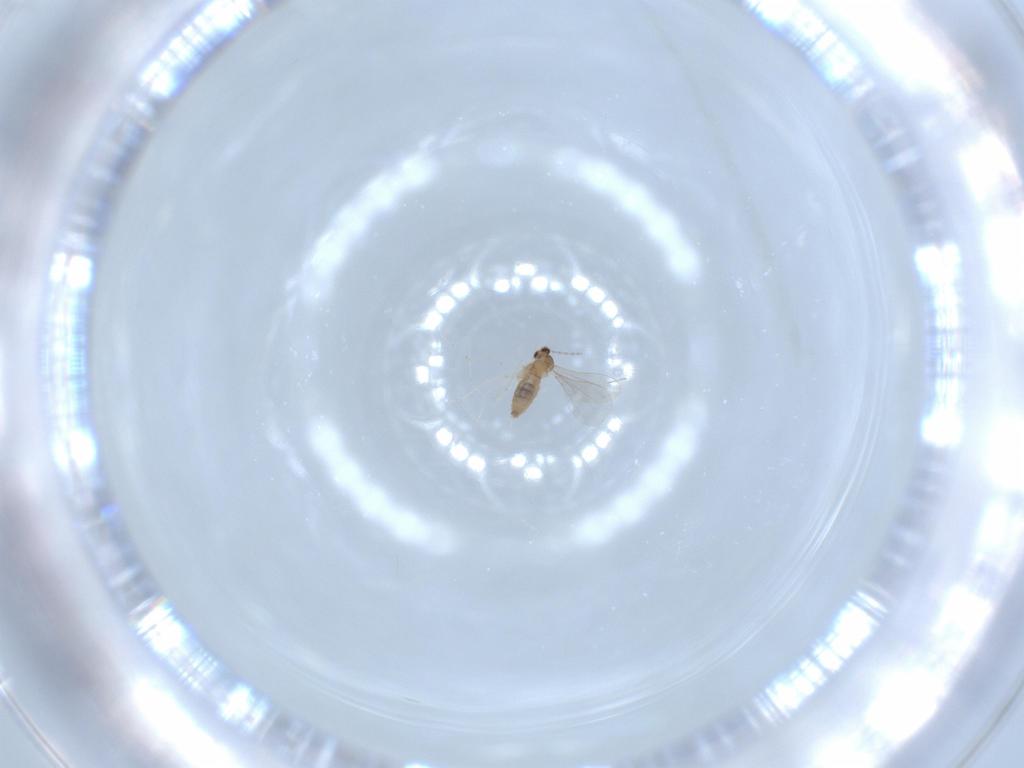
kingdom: Animalia
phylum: Arthropoda
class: Insecta
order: Diptera
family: Cecidomyiidae
